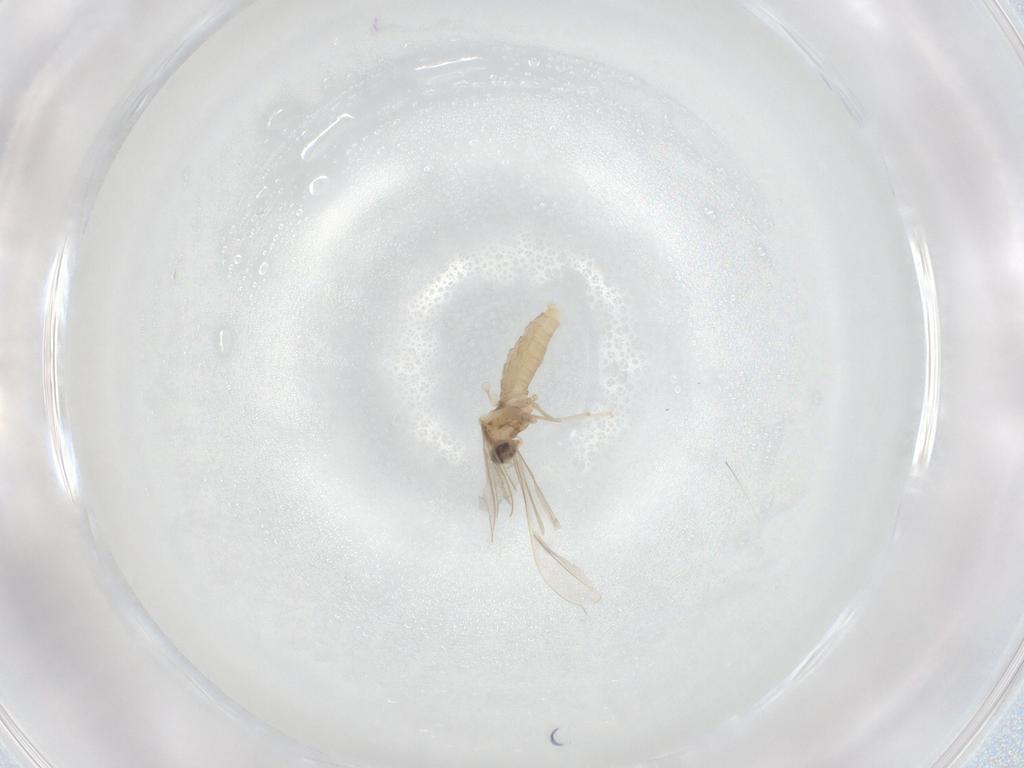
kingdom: Animalia
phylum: Arthropoda
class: Insecta
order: Diptera
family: Cecidomyiidae
